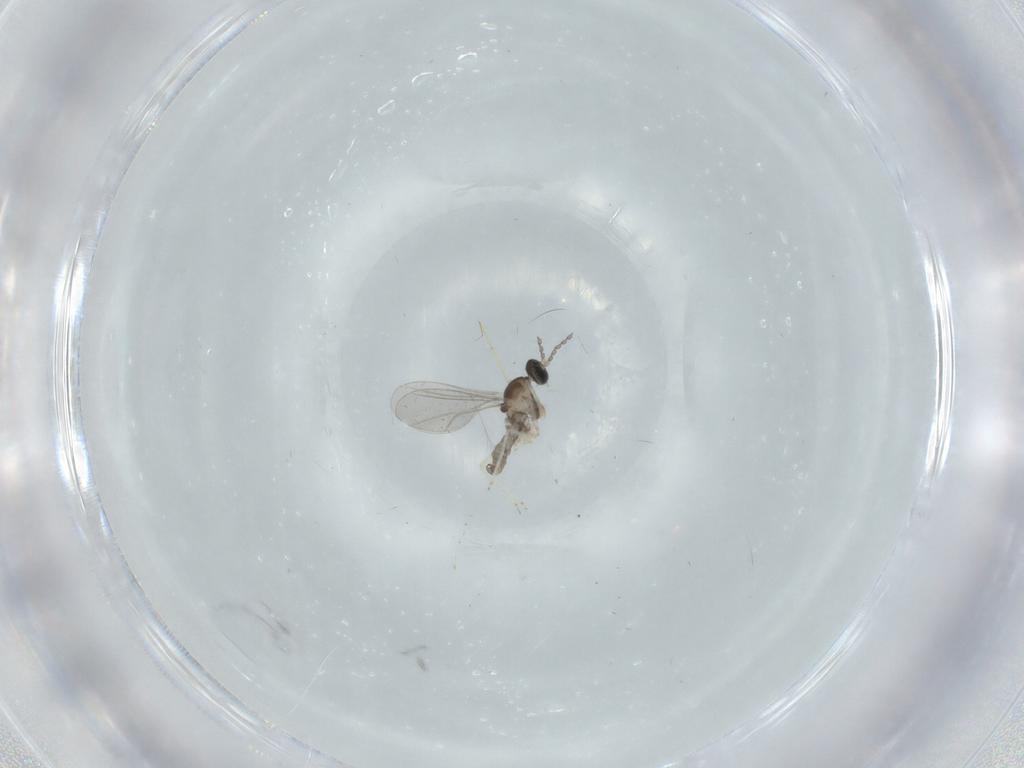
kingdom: Animalia
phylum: Arthropoda
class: Insecta
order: Diptera
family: Cecidomyiidae
